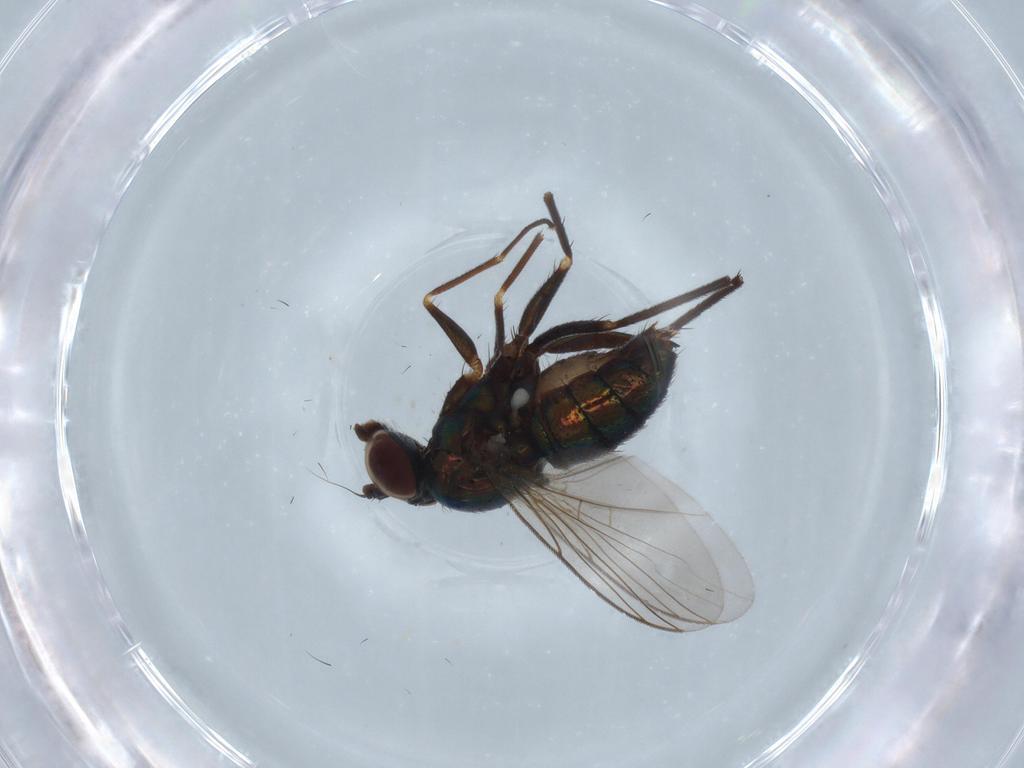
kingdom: Animalia
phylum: Arthropoda
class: Insecta
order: Diptera
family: Dolichopodidae
